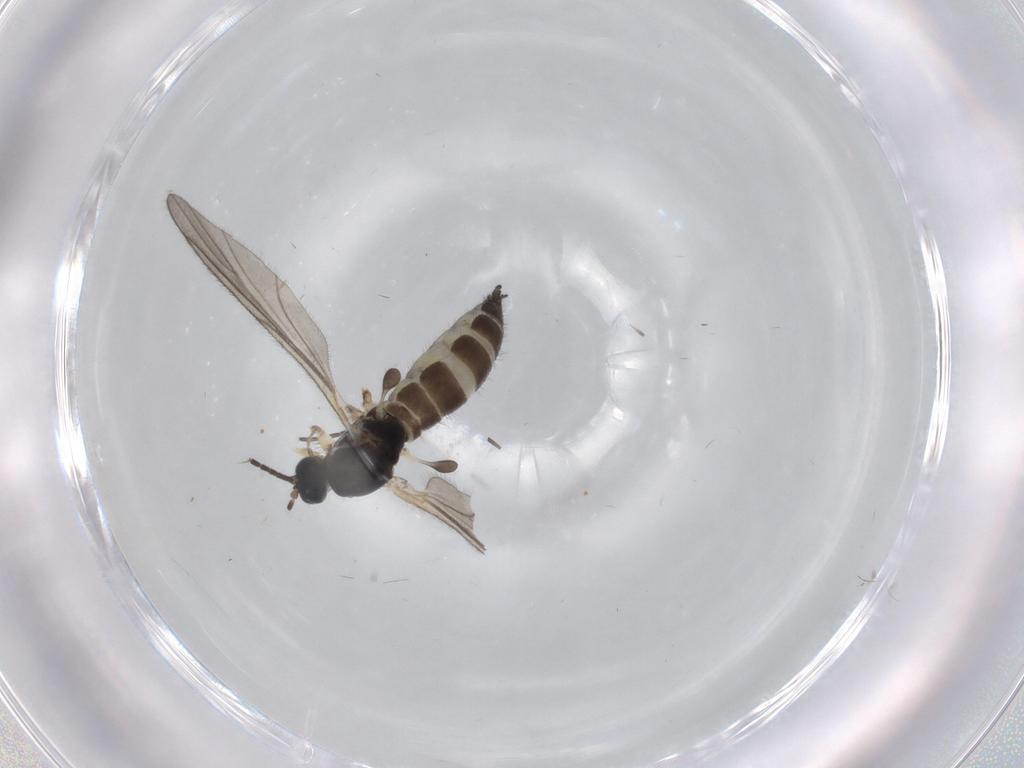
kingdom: Animalia
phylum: Arthropoda
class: Insecta
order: Diptera
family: Sciaridae
